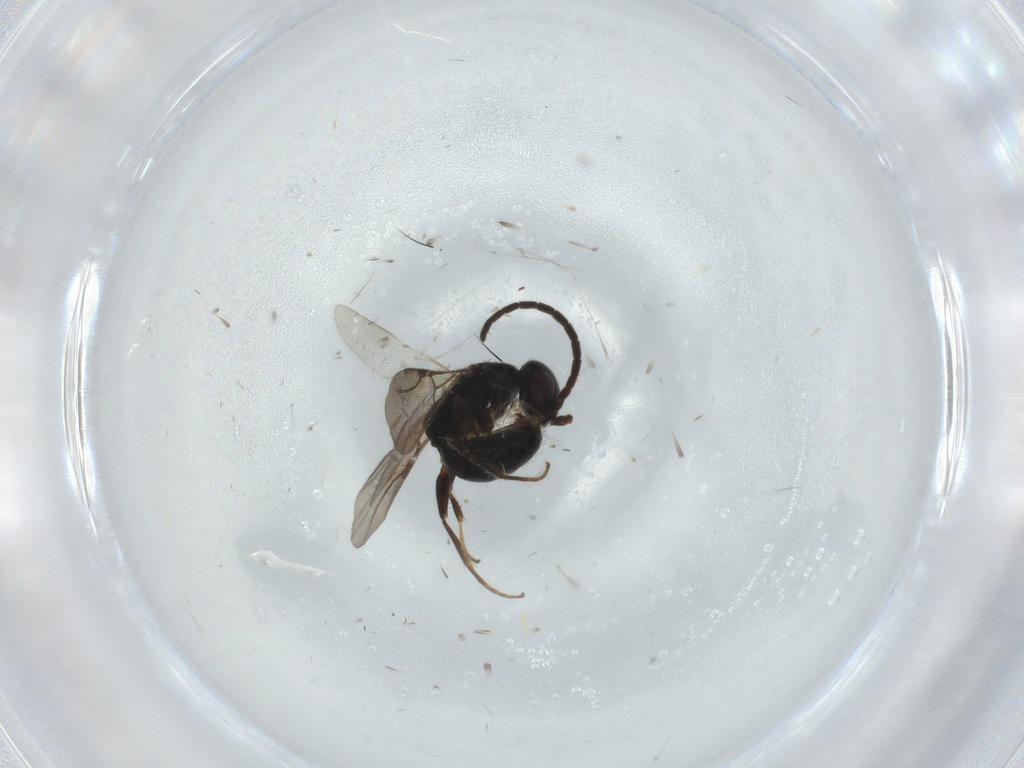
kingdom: Animalia
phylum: Arthropoda
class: Insecta
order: Hymenoptera
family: Bethylidae
